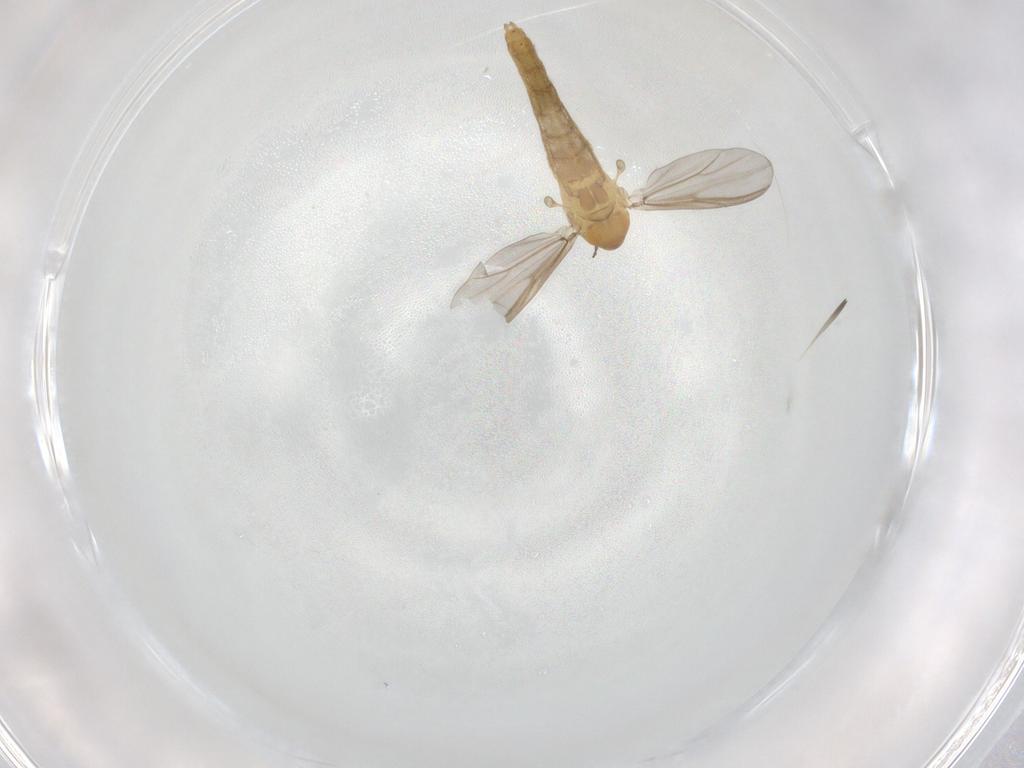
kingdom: Animalia
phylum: Arthropoda
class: Insecta
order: Diptera
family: Chironomidae
